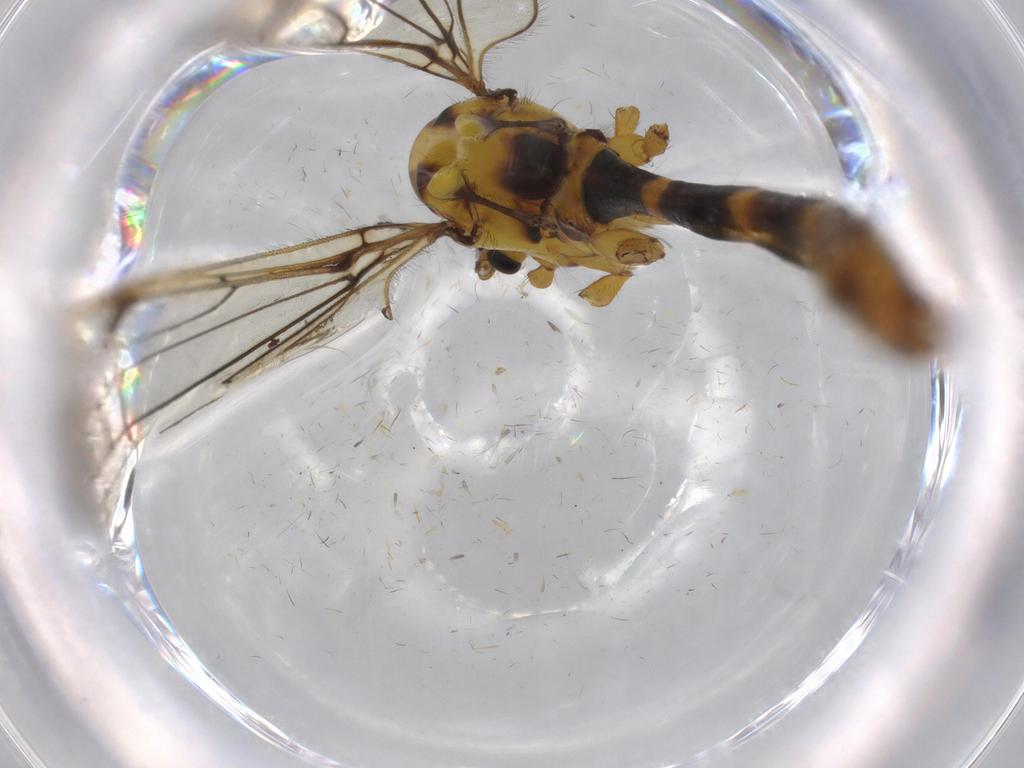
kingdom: Animalia
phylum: Arthropoda
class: Insecta
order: Diptera
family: Limoniidae
